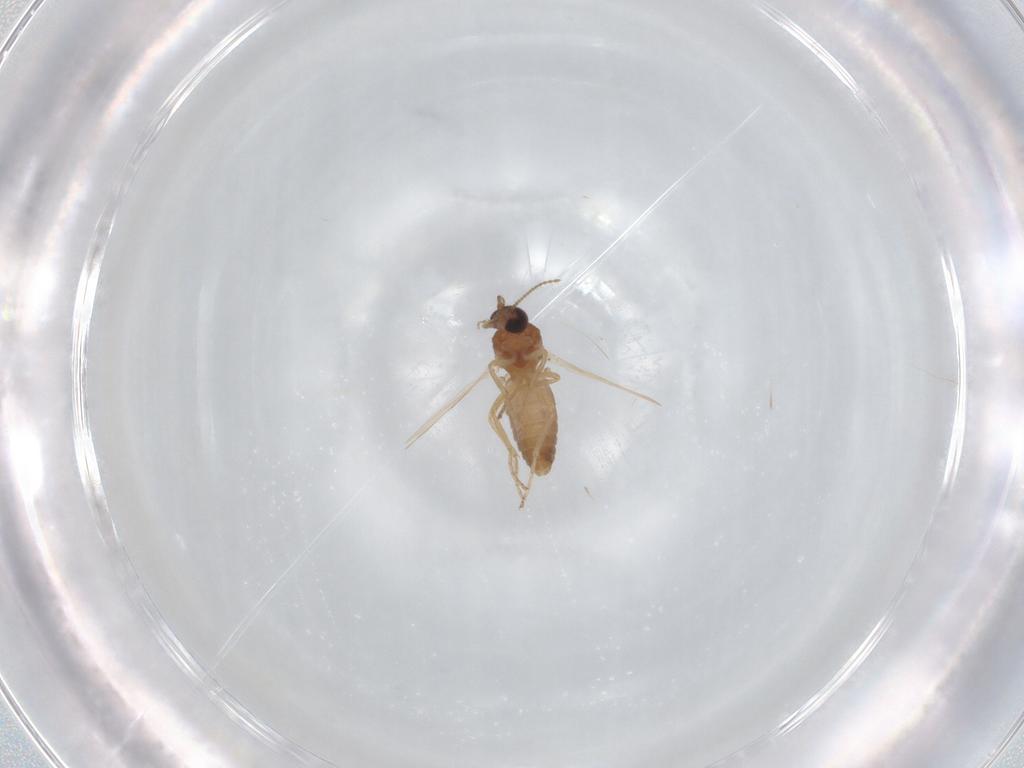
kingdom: Animalia
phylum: Arthropoda
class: Insecta
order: Diptera
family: Ceratopogonidae
